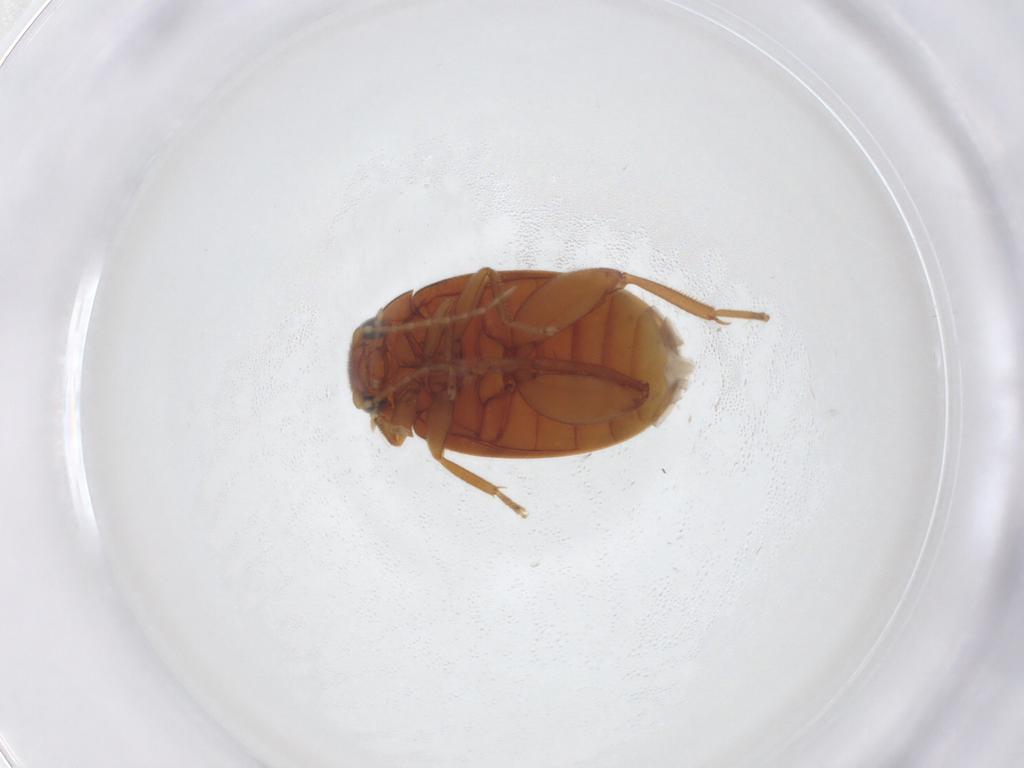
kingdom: Animalia
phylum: Arthropoda
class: Insecta
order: Coleoptera
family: Scirtidae
